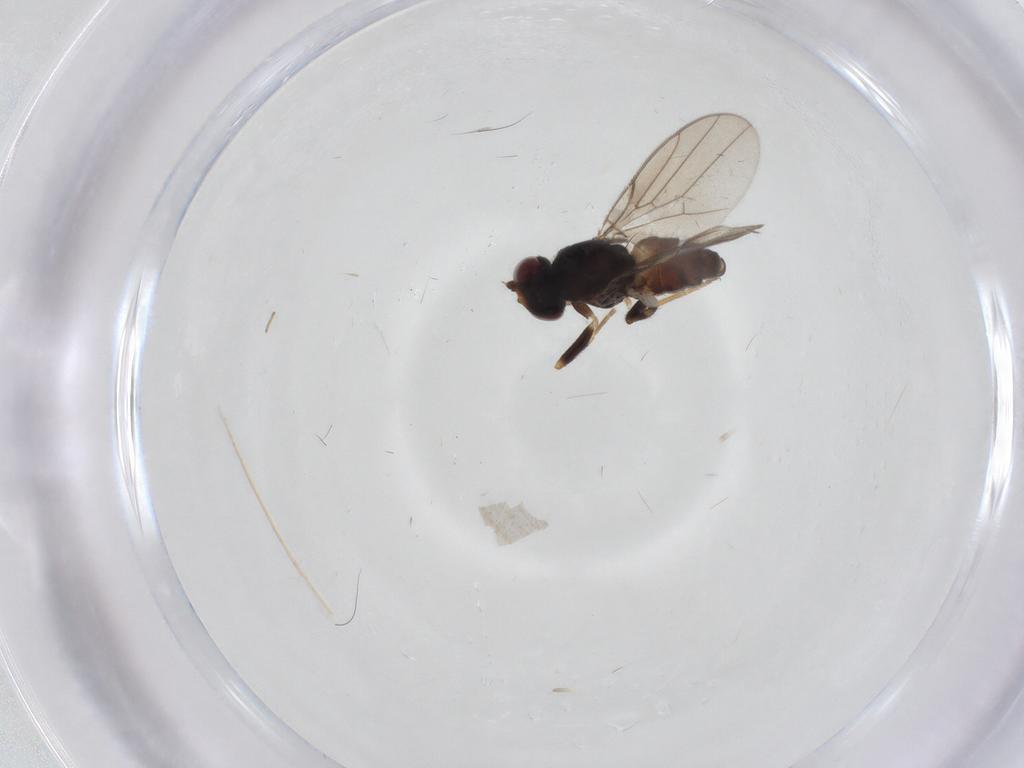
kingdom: Animalia
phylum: Arthropoda
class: Insecta
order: Diptera
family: Chloropidae
